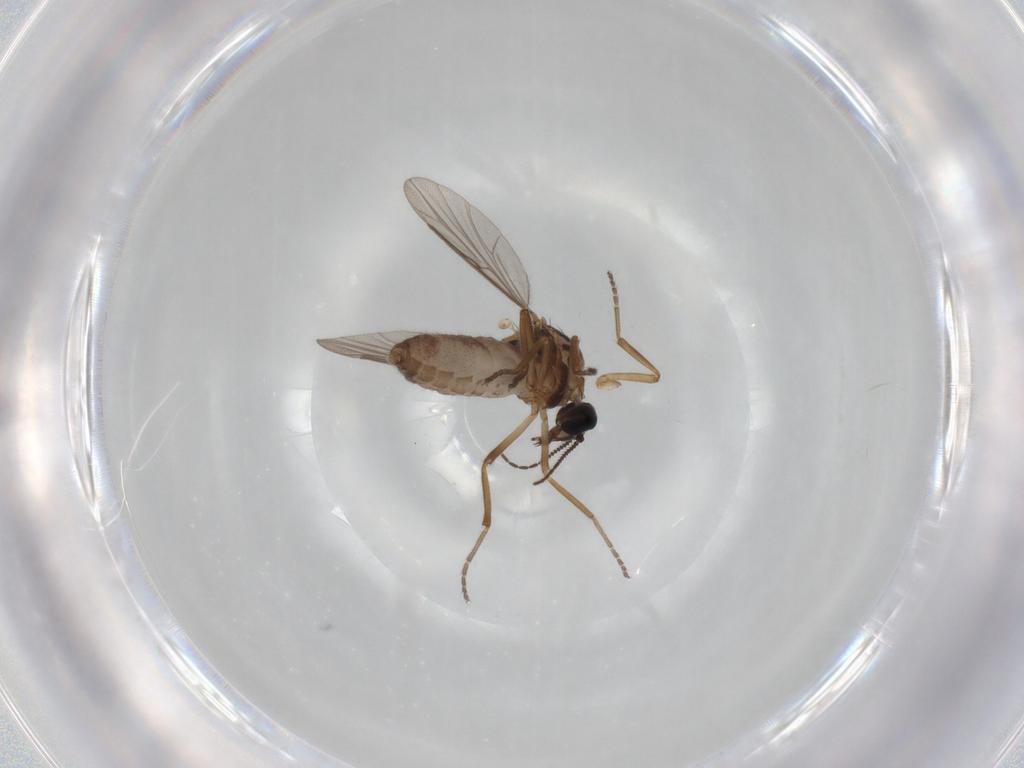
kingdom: Animalia
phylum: Arthropoda
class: Insecta
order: Diptera
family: Ceratopogonidae
